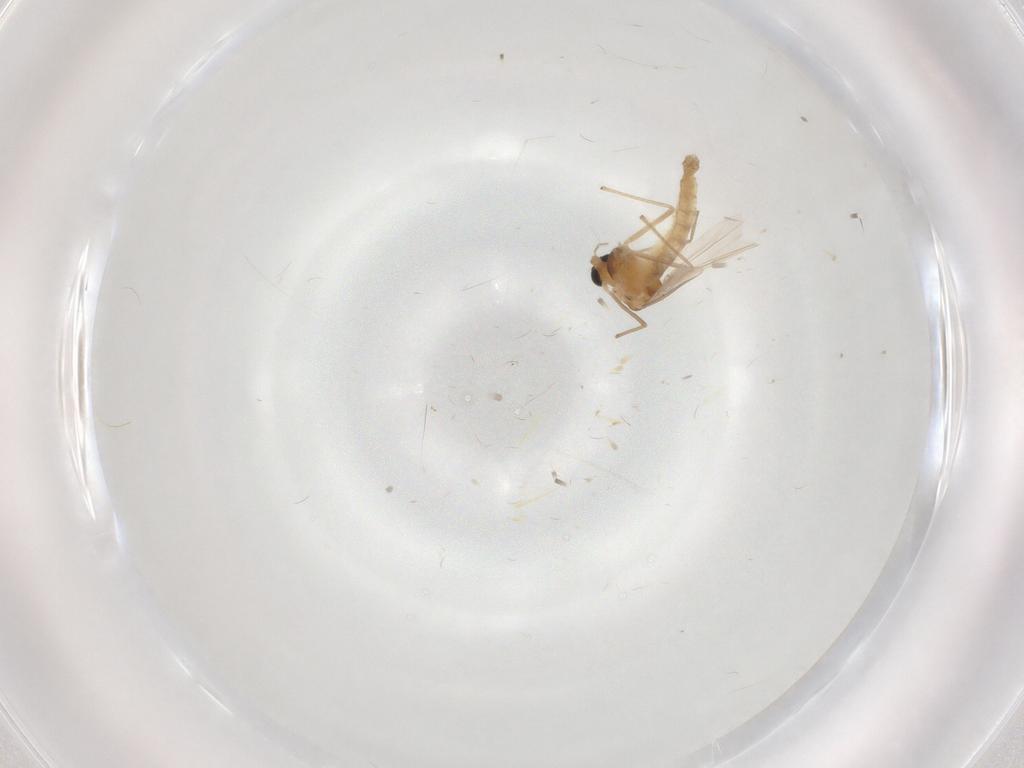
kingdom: Animalia
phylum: Arthropoda
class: Insecta
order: Diptera
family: Chironomidae
